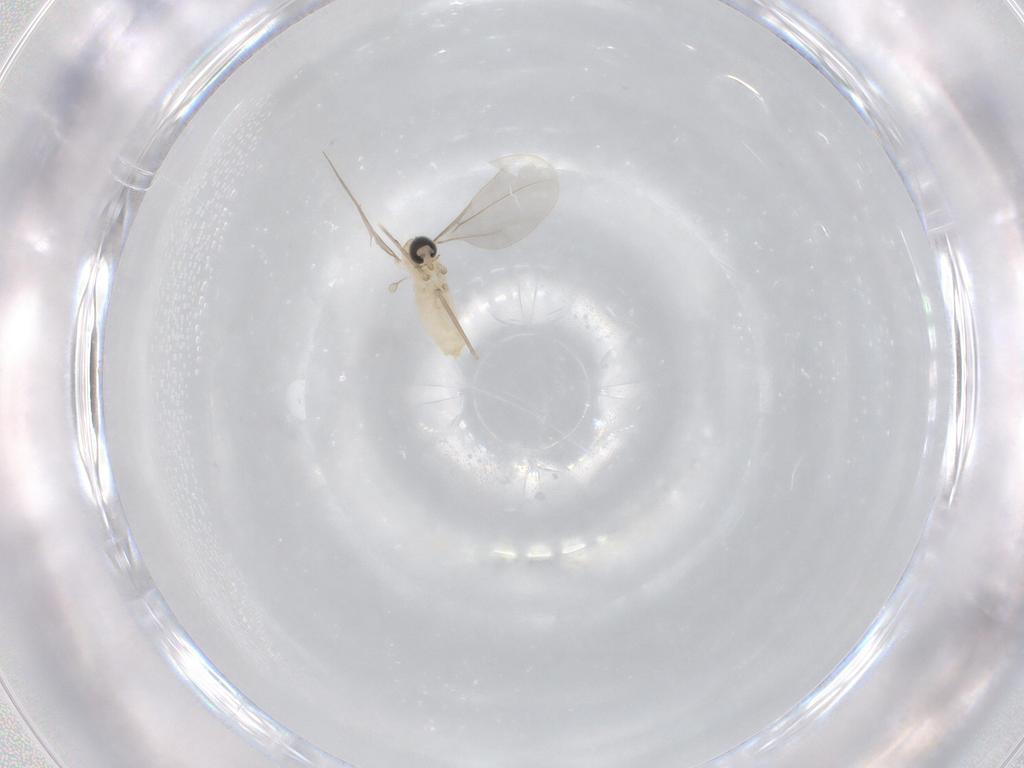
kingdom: Animalia
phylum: Arthropoda
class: Insecta
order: Diptera
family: Cecidomyiidae
